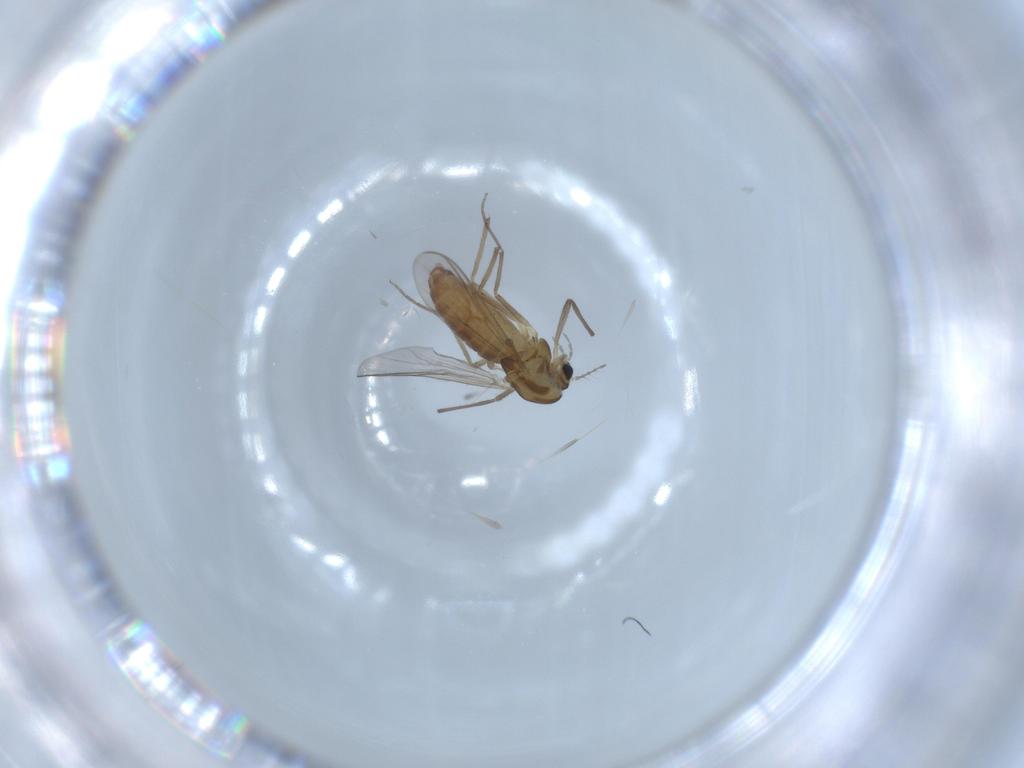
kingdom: Animalia
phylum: Arthropoda
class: Insecta
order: Diptera
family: Chironomidae
